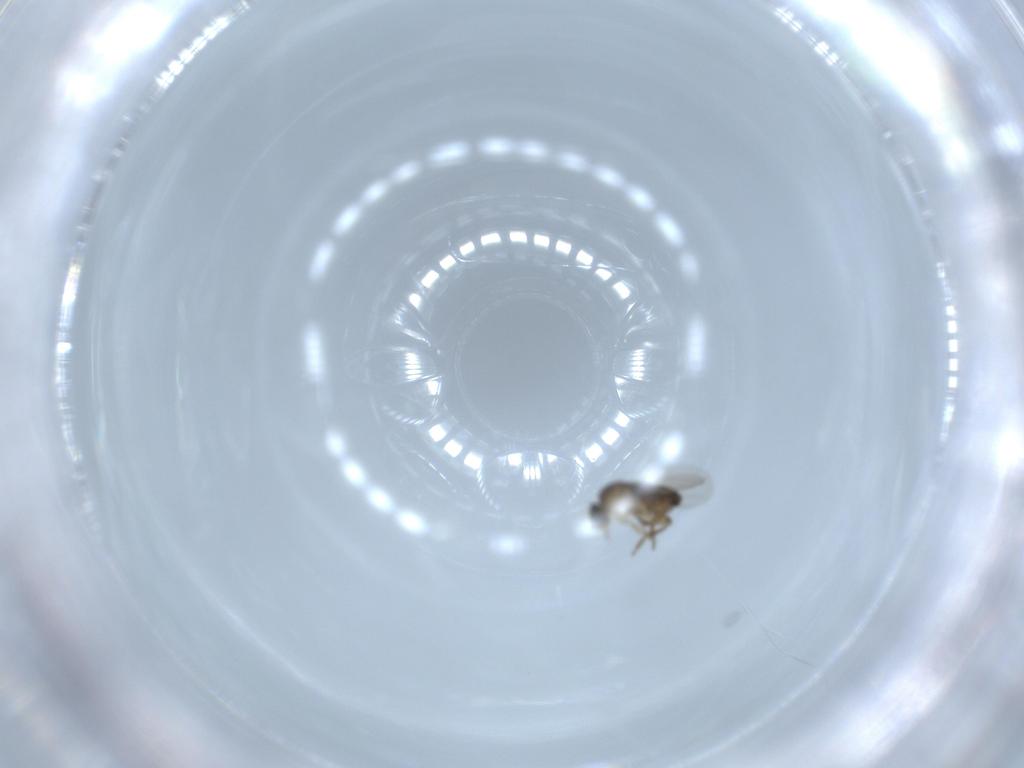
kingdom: Animalia
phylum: Arthropoda
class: Insecta
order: Diptera
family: Phoridae
